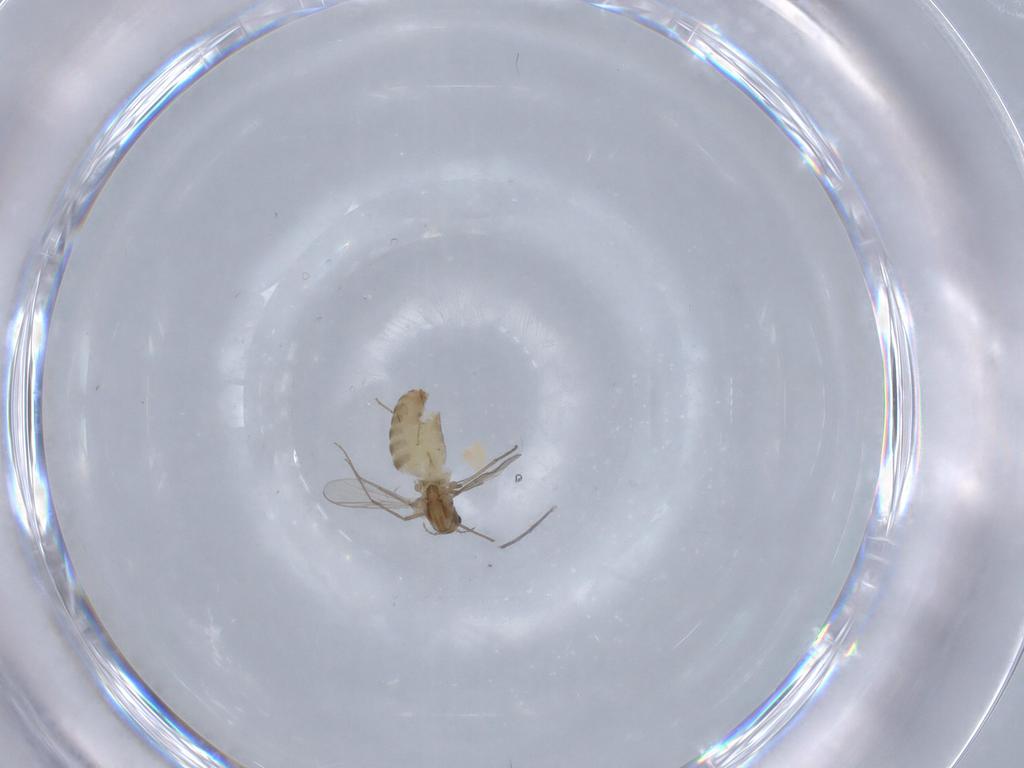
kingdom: Animalia
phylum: Arthropoda
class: Insecta
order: Diptera
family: Chironomidae
